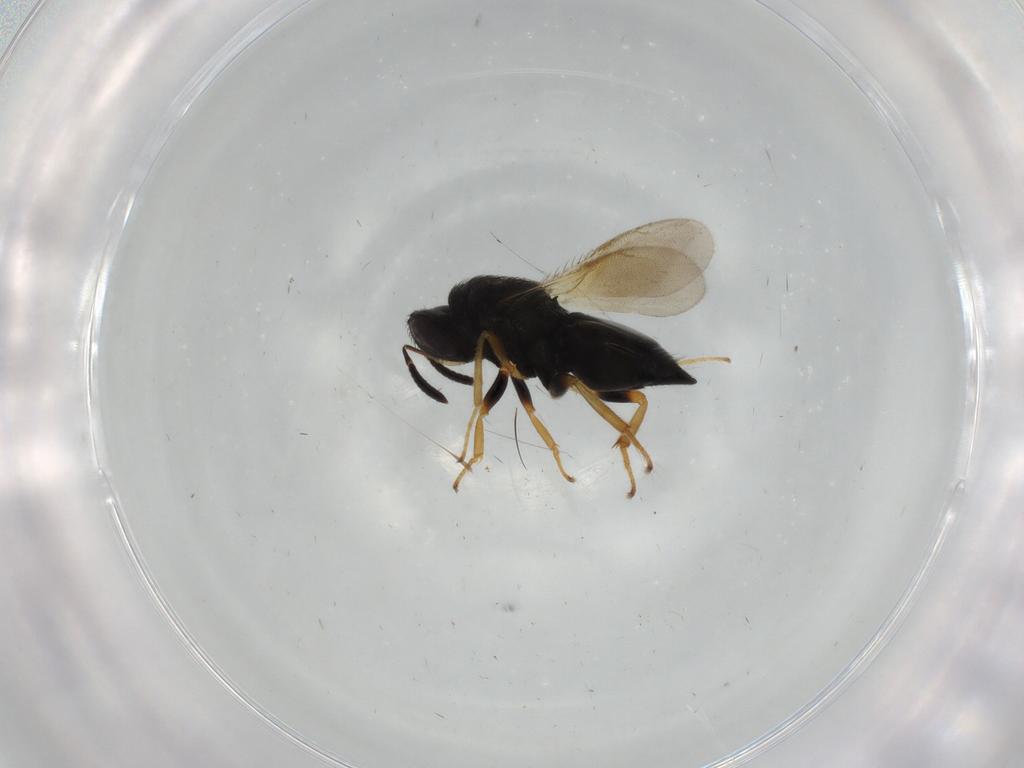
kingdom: Animalia
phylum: Arthropoda
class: Insecta
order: Hymenoptera
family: Pteromalidae
